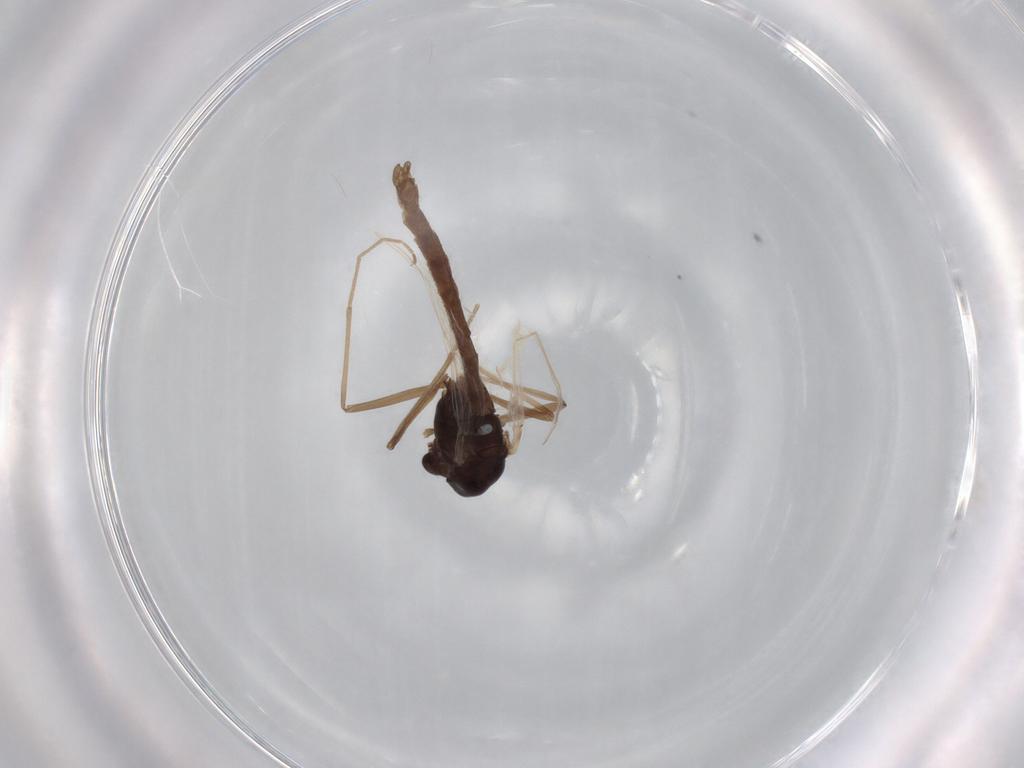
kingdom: Animalia
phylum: Arthropoda
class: Insecta
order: Diptera
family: Chironomidae
